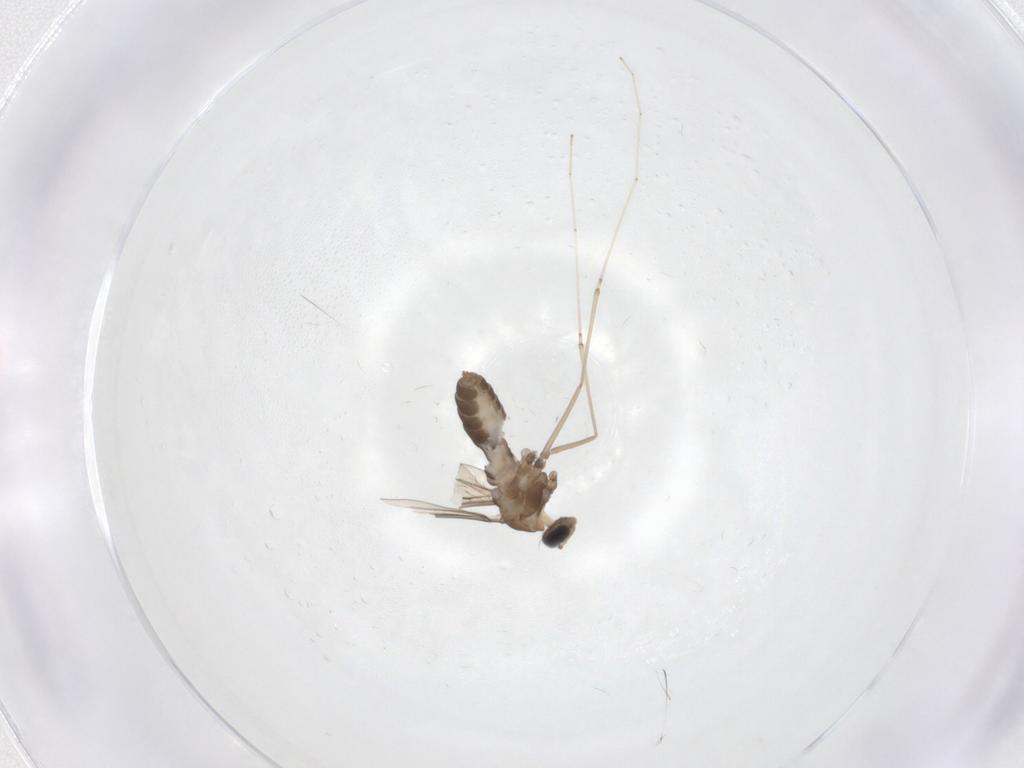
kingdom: Animalia
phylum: Arthropoda
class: Insecta
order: Diptera
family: Cecidomyiidae
